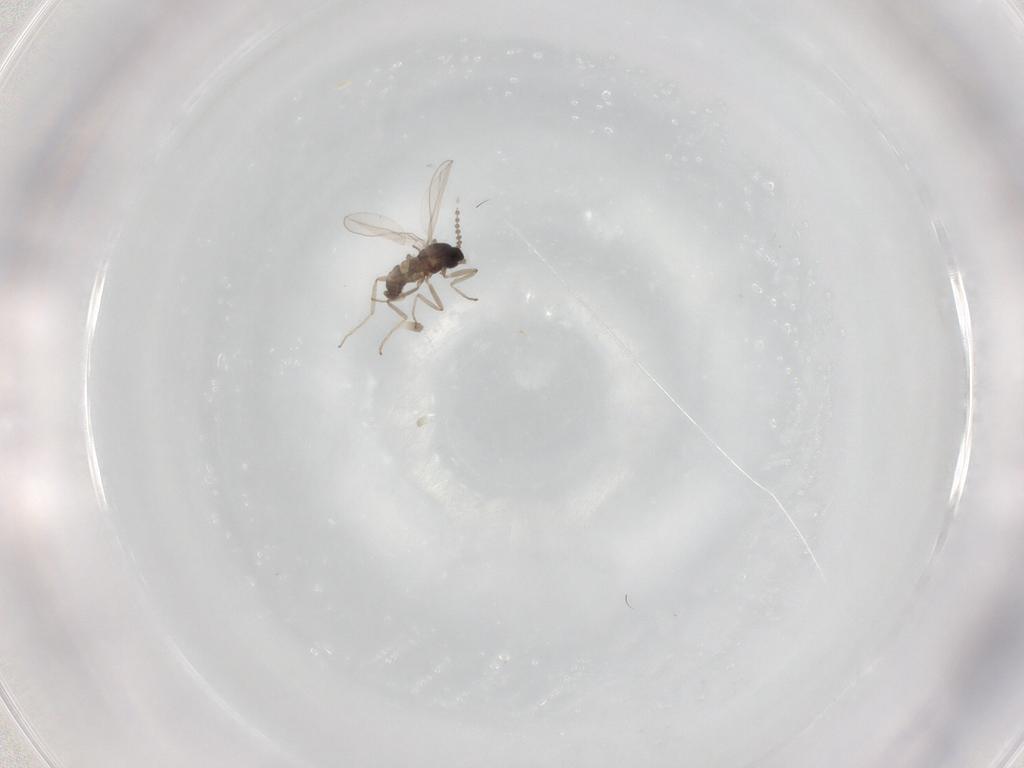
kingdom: Animalia
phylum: Arthropoda
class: Insecta
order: Diptera
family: Cecidomyiidae
